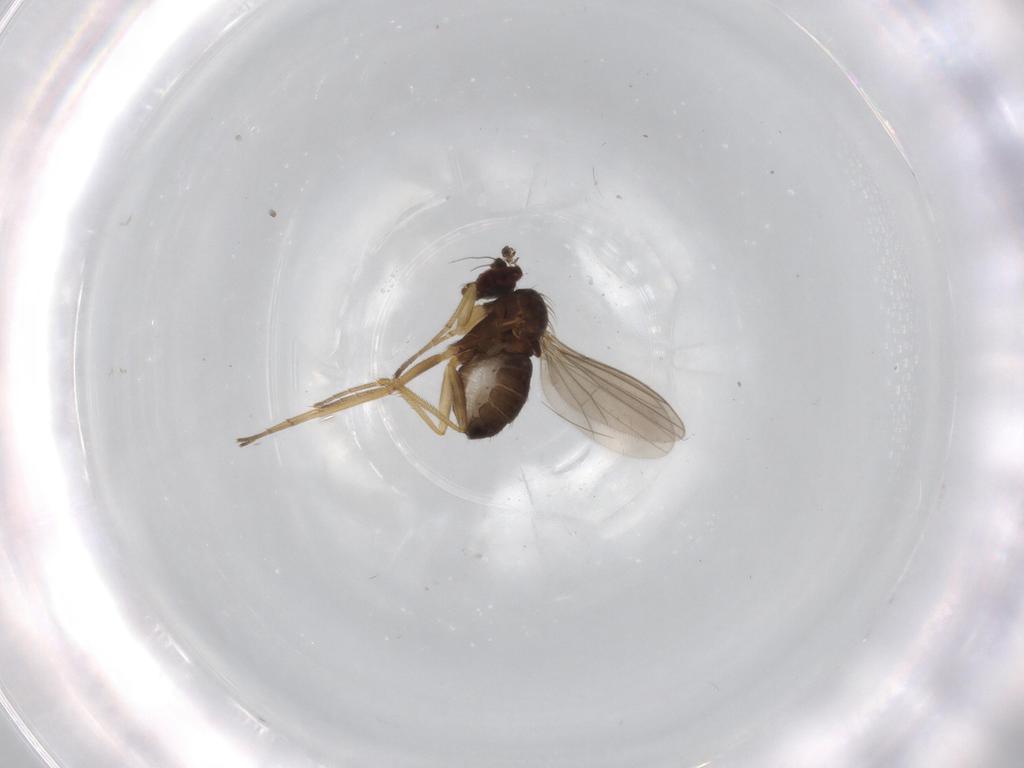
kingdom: Animalia
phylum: Arthropoda
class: Insecta
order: Diptera
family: Dolichopodidae
